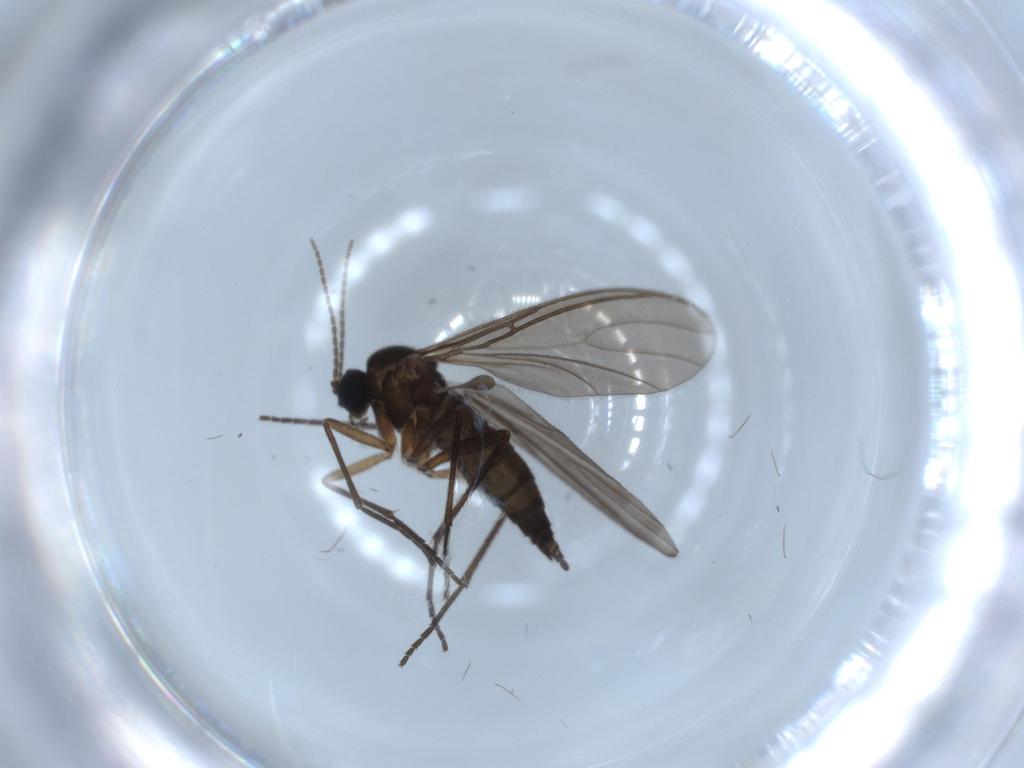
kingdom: Animalia
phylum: Arthropoda
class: Insecta
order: Diptera
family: Sciaridae
